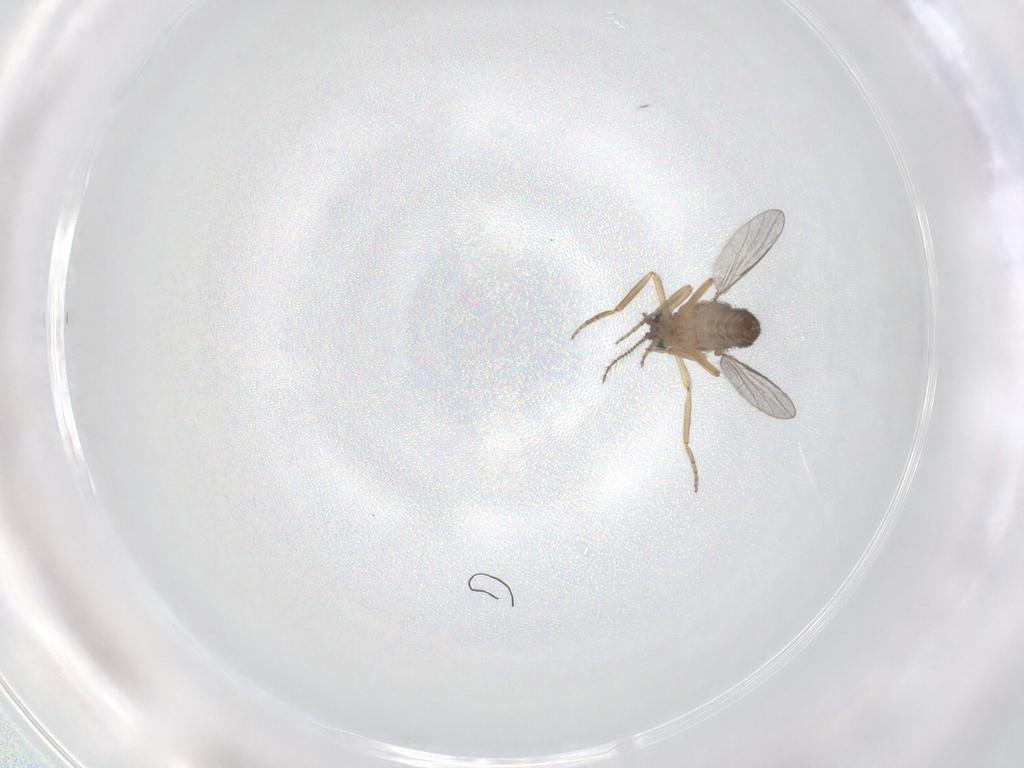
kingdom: Animalia
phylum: Arthropoda
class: Insecta
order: Diptera
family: Ceratopogonidae
